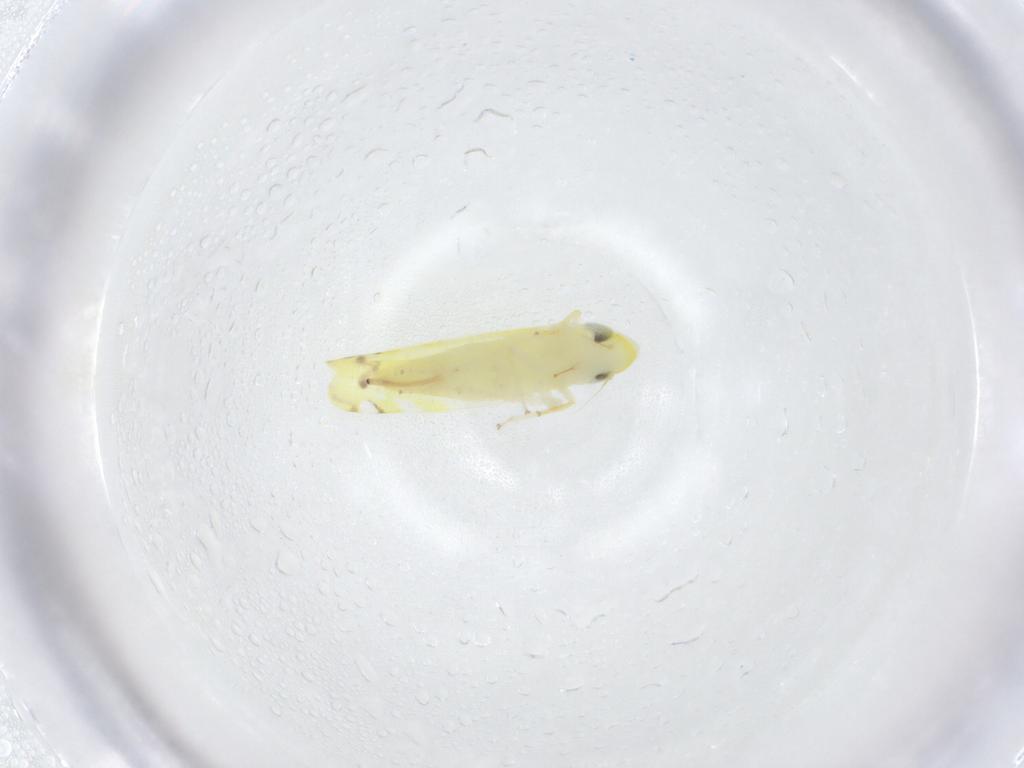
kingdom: Animalia
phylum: Arthropoda
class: Insecta
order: Hemiptera
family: Cicadellidae
